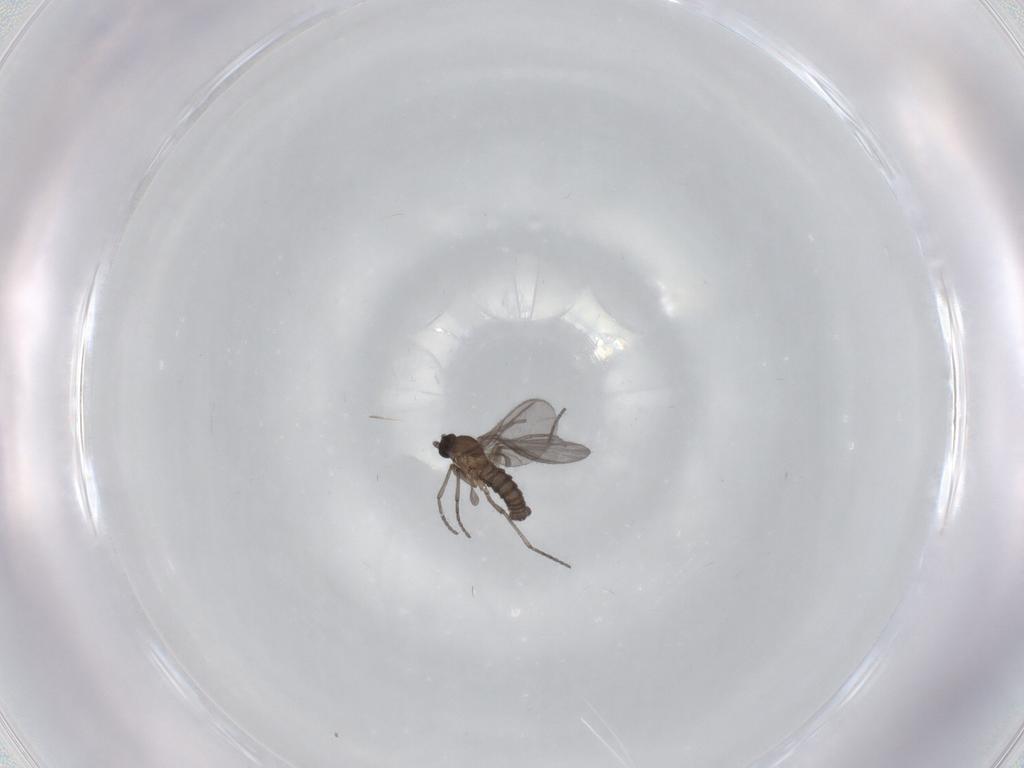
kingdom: Animalia
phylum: Arthropoda
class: Insecta
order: Diptera
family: Sciaridae
